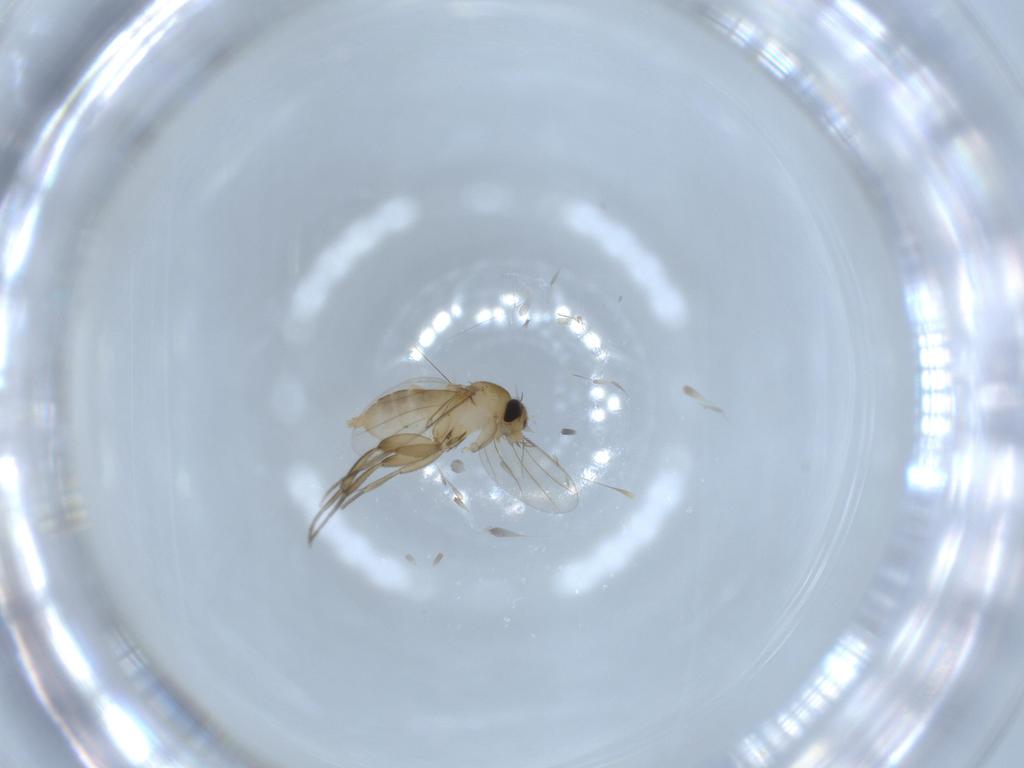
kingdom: Animalia
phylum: Arthropoda
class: Insecta
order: Diptera
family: Phoridae
